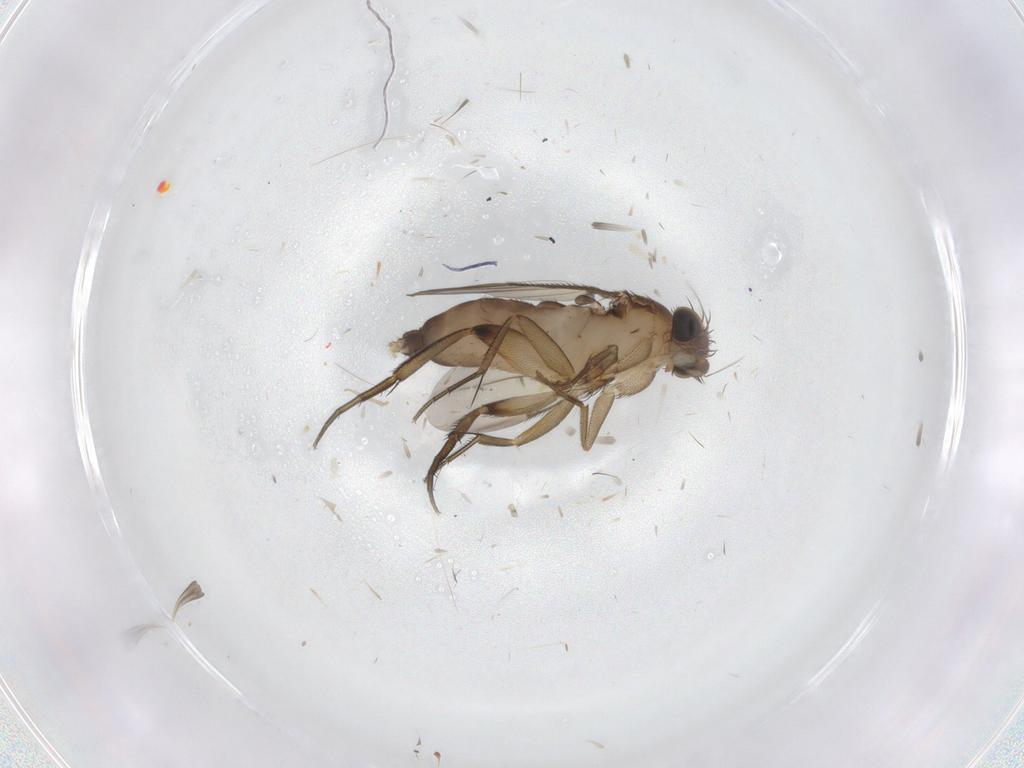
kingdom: Animalia
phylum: Arthropoda
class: Insecta
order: Diptera
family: Phoridae
